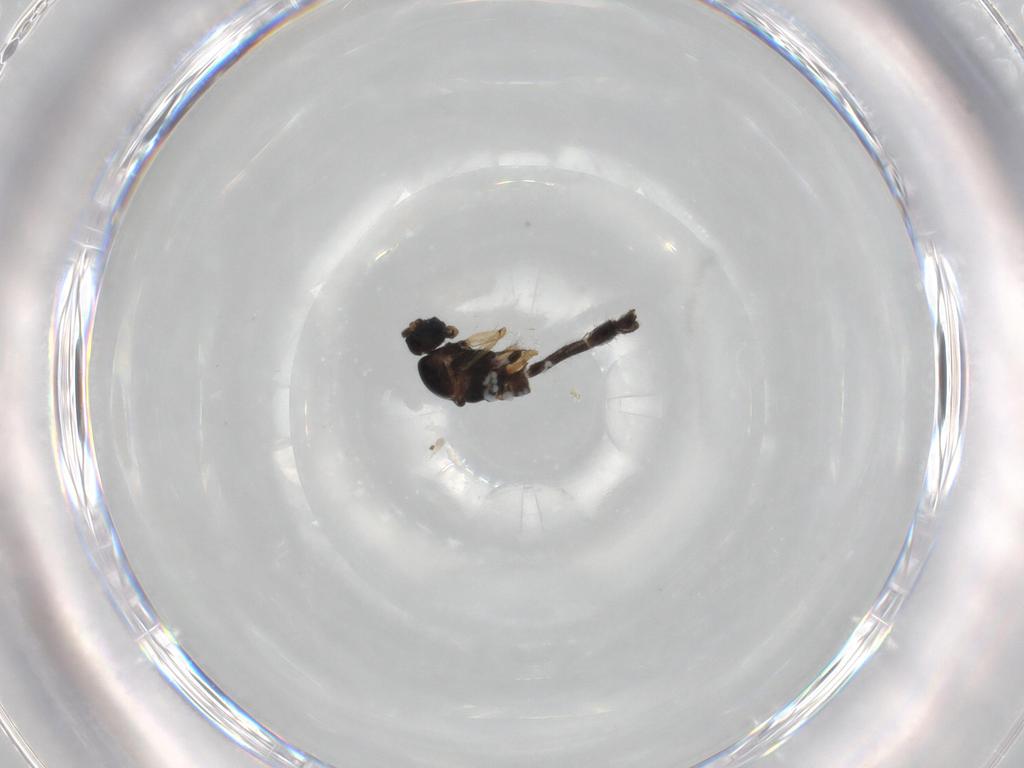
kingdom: Animalia
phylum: Arthropoda
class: Insecta
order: Diptera
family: Sciaridae
